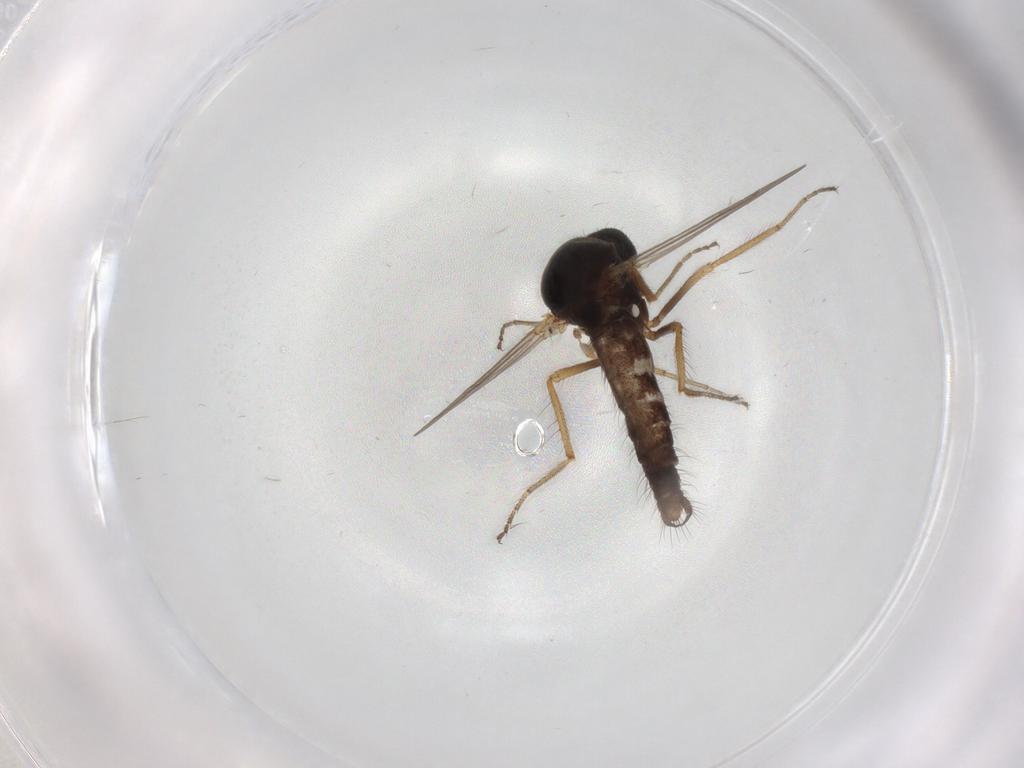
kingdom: Animalia
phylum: Arthropoda
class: Insecta
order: Diptera
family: Ceratopogonidae
